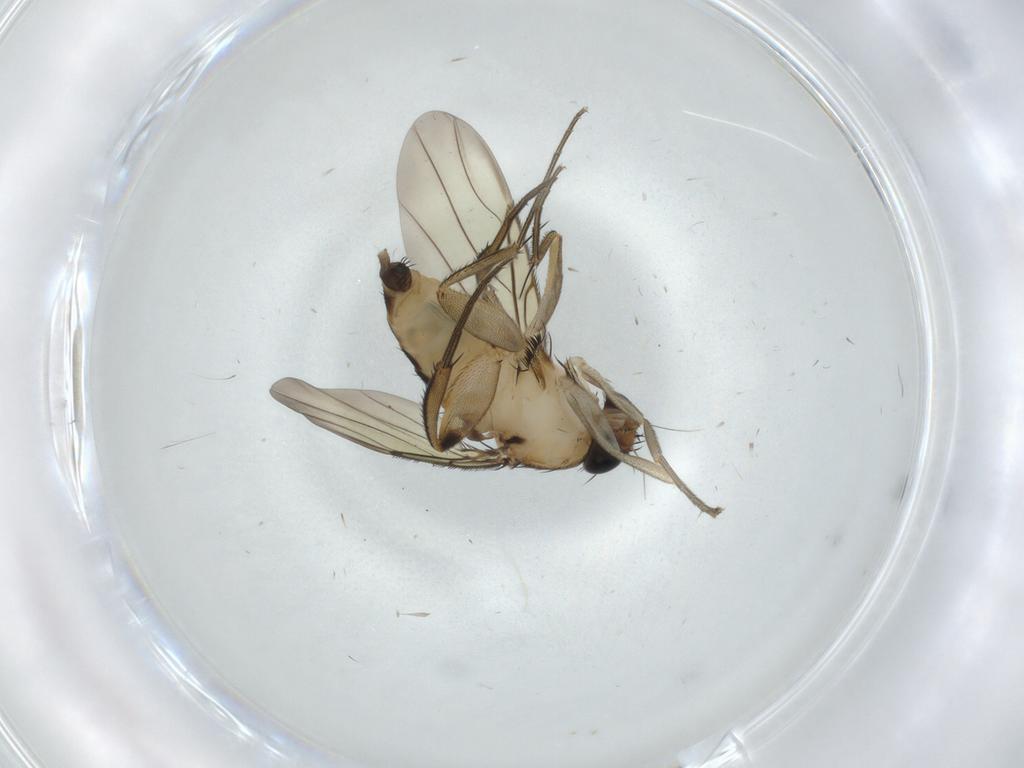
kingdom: Animalia
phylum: Arthropoda
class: Insecta
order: Diptera
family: Phoridae
